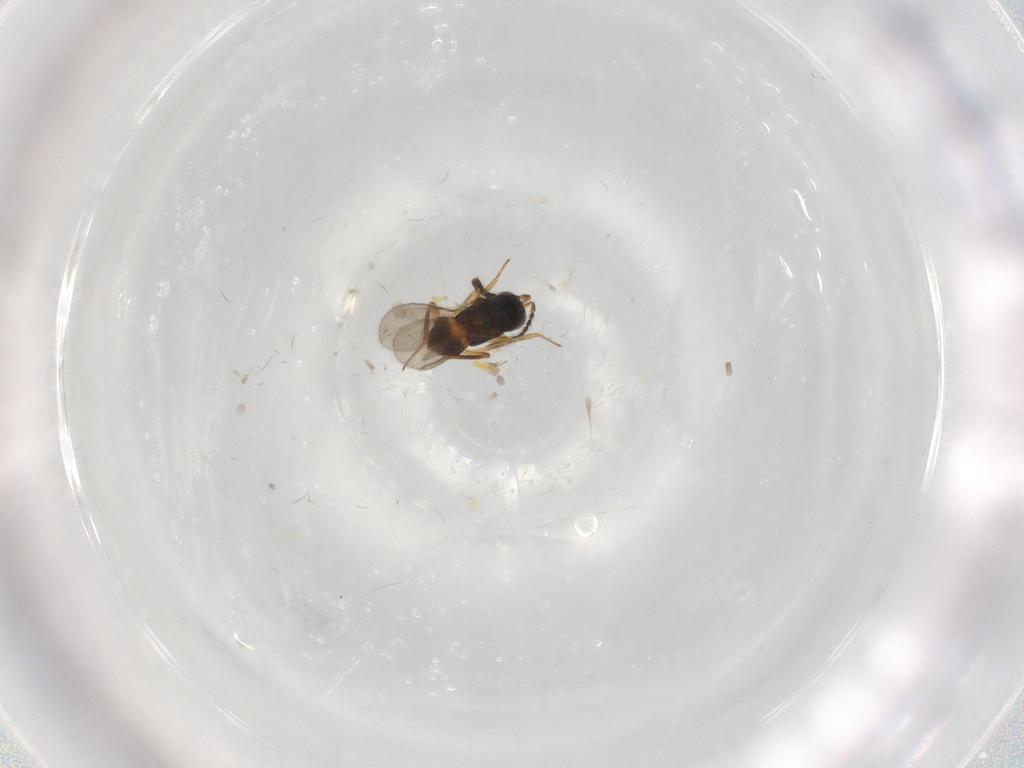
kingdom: Animalia
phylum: Arthropoda
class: Insecta
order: Hymenoptera
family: Encyrtidae
